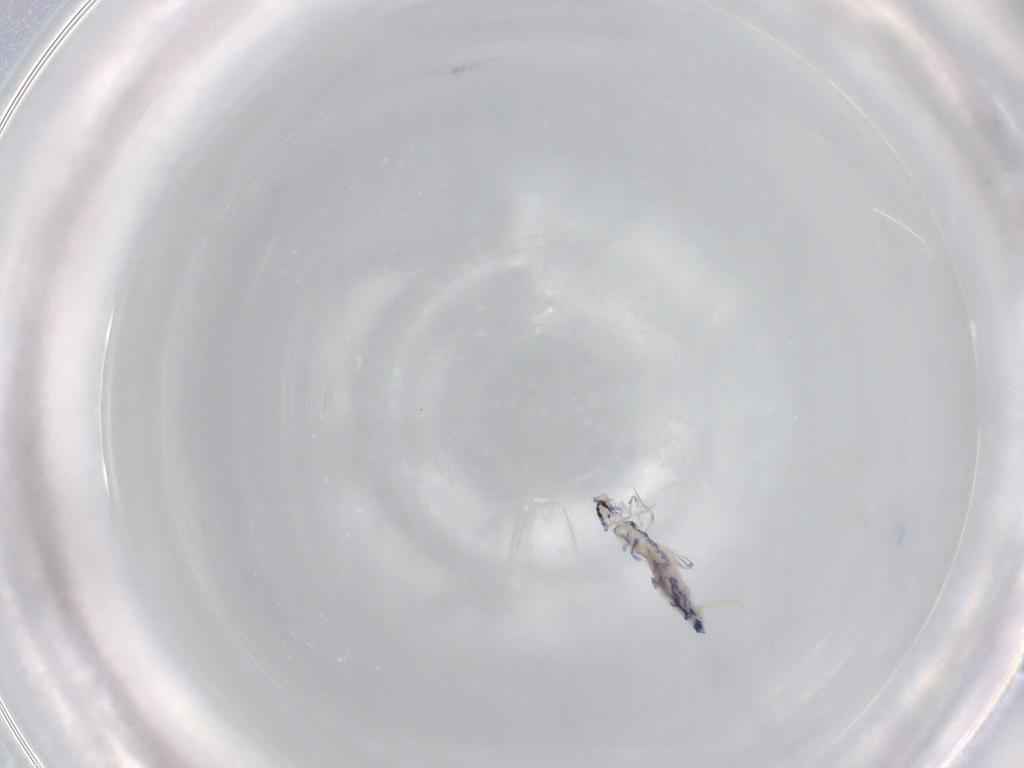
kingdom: Animalia
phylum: Arthropoda
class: Collembola
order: Entomobryomorpha
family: Entomobryidae
